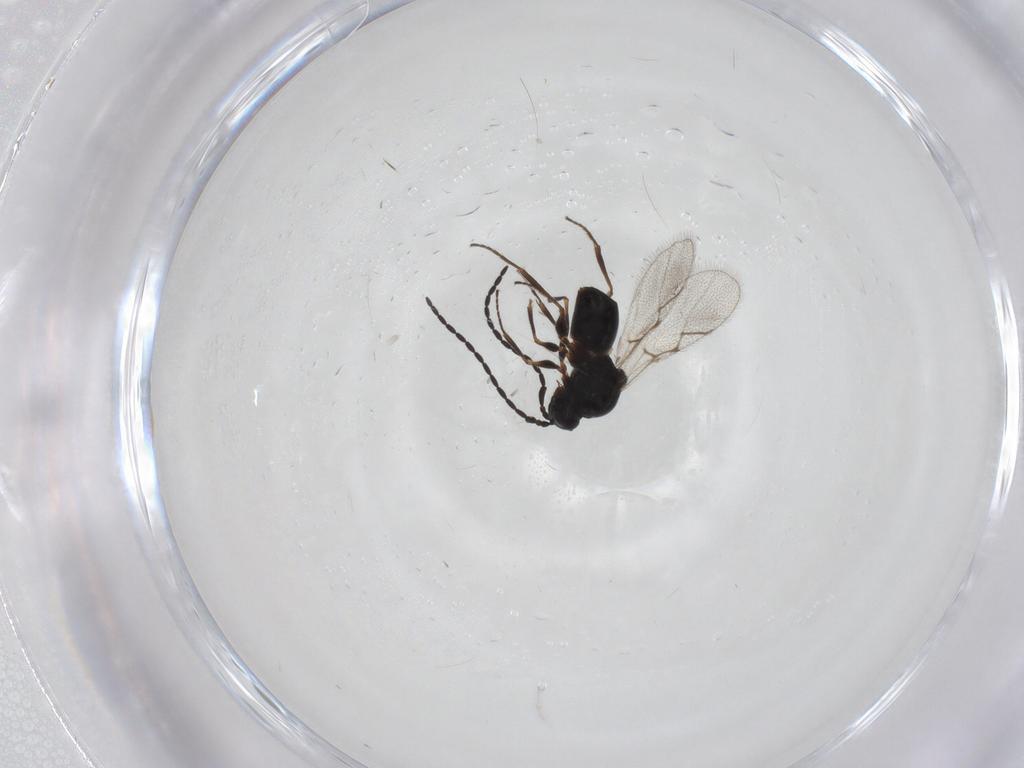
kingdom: Animalia
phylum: Arthropoda
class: Insecta
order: Hymenoptera
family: Figitidae
